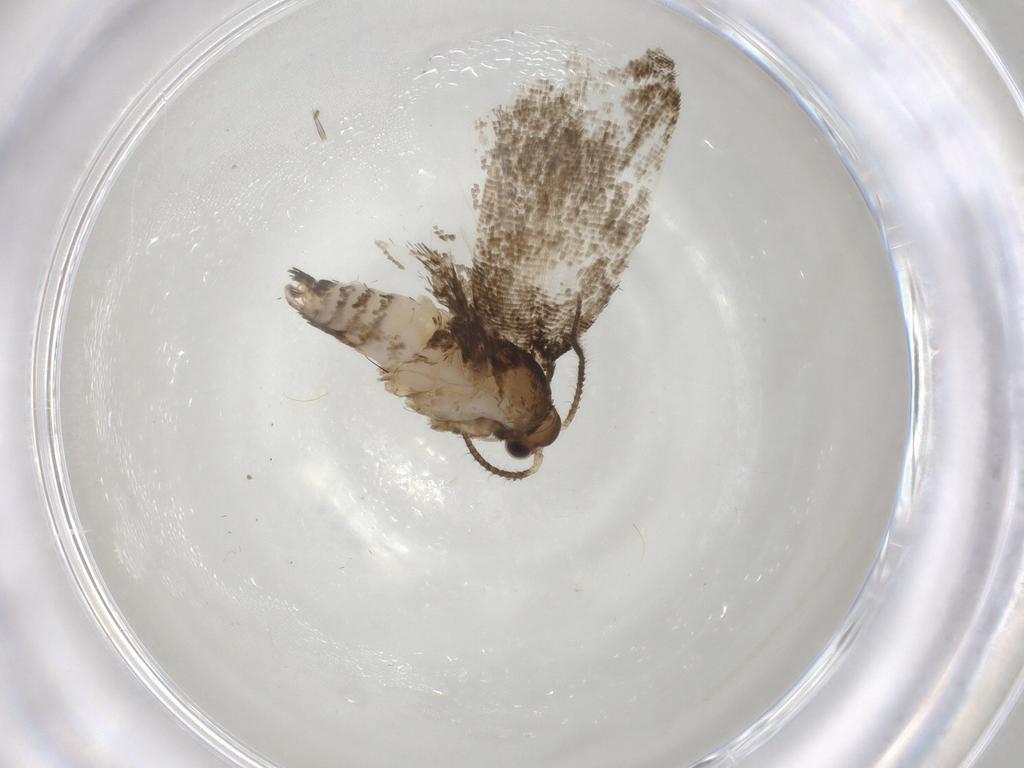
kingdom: Animalia
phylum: Arthropoda
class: Insecta
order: Lepidoptera
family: Tortricidae
